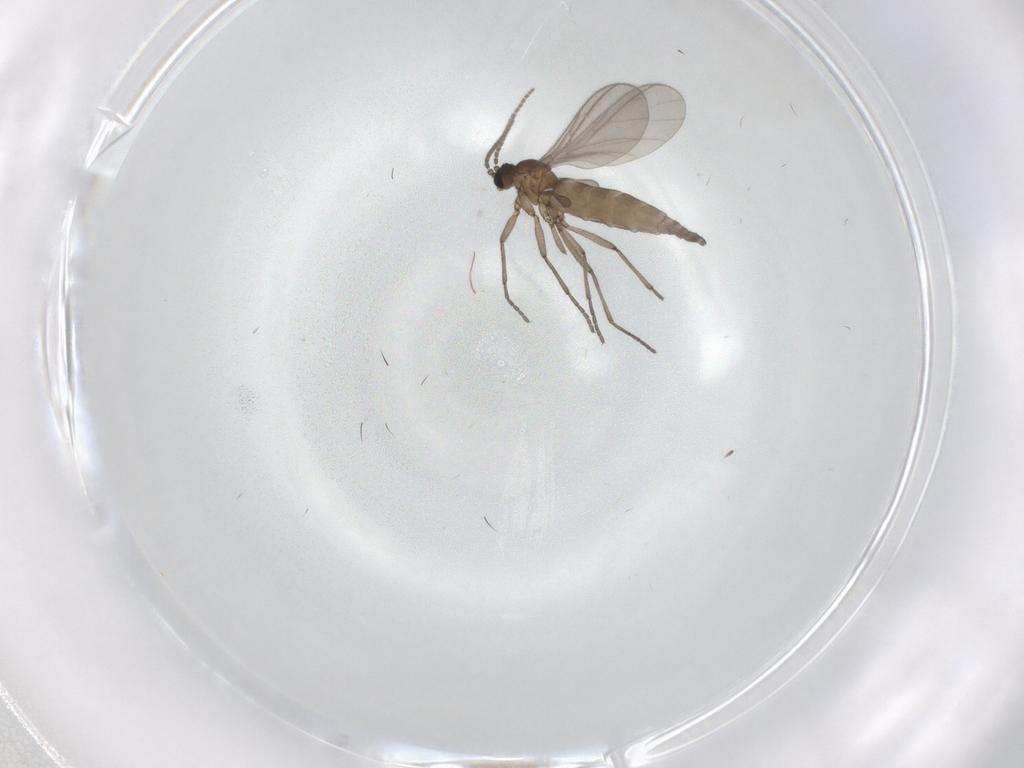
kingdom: Animalia
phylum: Arthropoda
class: Insecta
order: Diptera
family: Sciaridae
